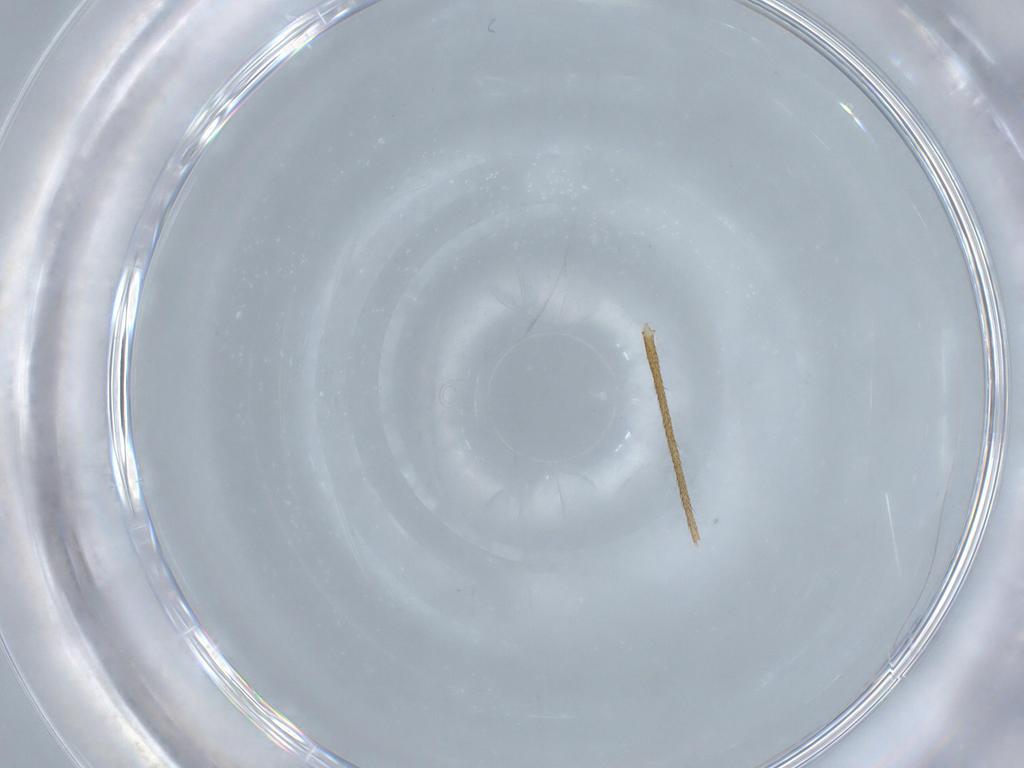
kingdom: Animalia
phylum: Arthropoda
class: Insecta
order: Diptera
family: Limoniidae
